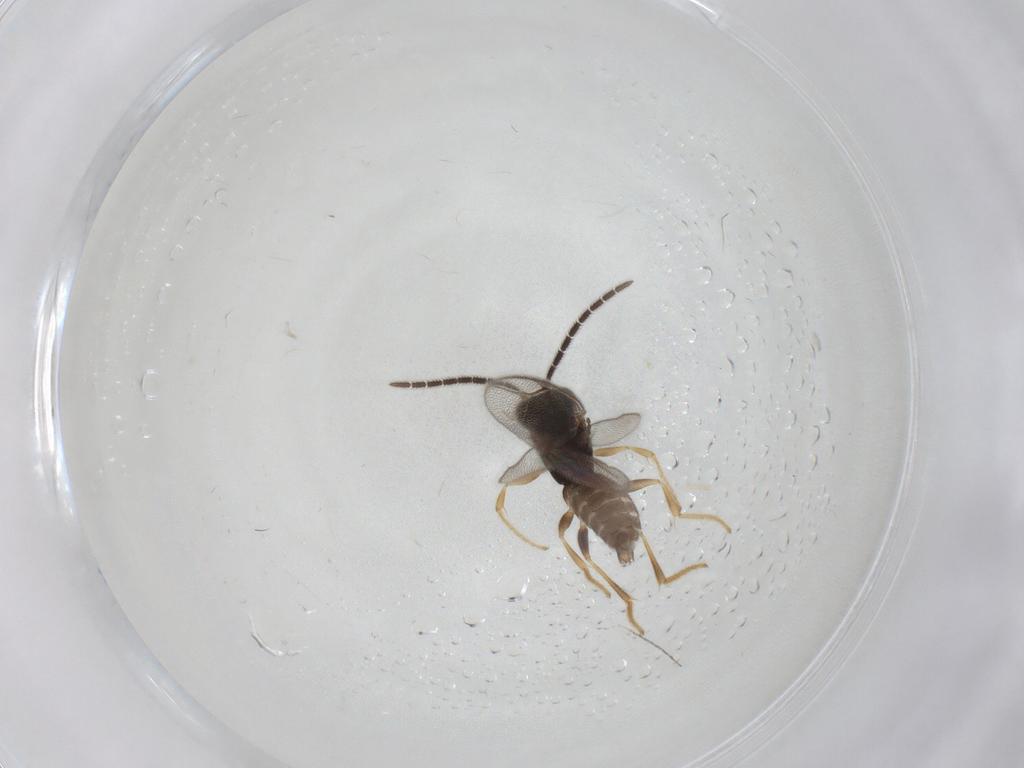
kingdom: Animalia
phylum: Arthropoda
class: Insecta
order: Hymenoptera
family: Dryinidae
